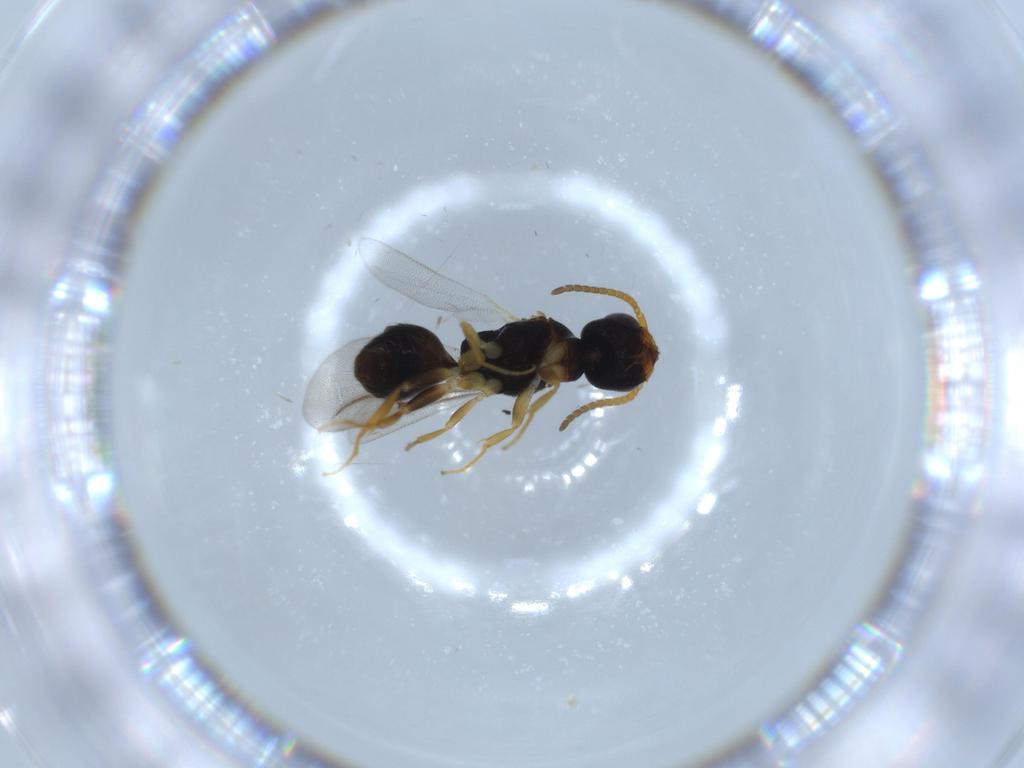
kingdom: Animalia
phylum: Arthropoda
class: Insecta
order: Hymenoptera
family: Bethylidae
